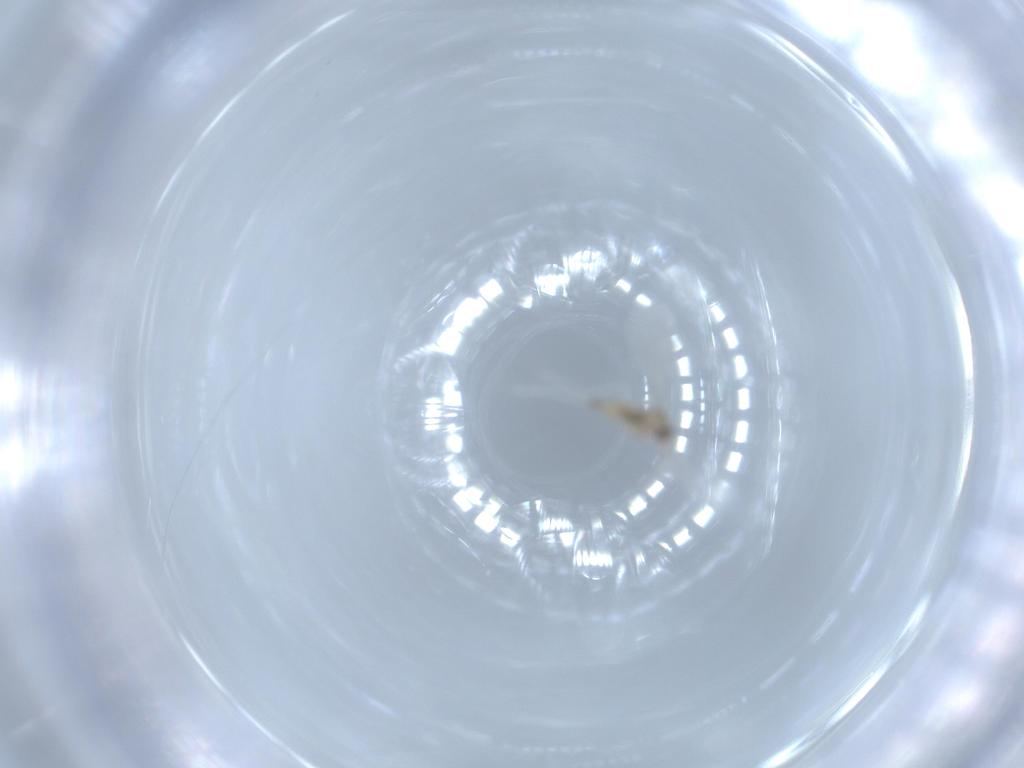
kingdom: Animalia
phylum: Arthropoda
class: Insecta
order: Diptera
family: Cecidomyiidae
